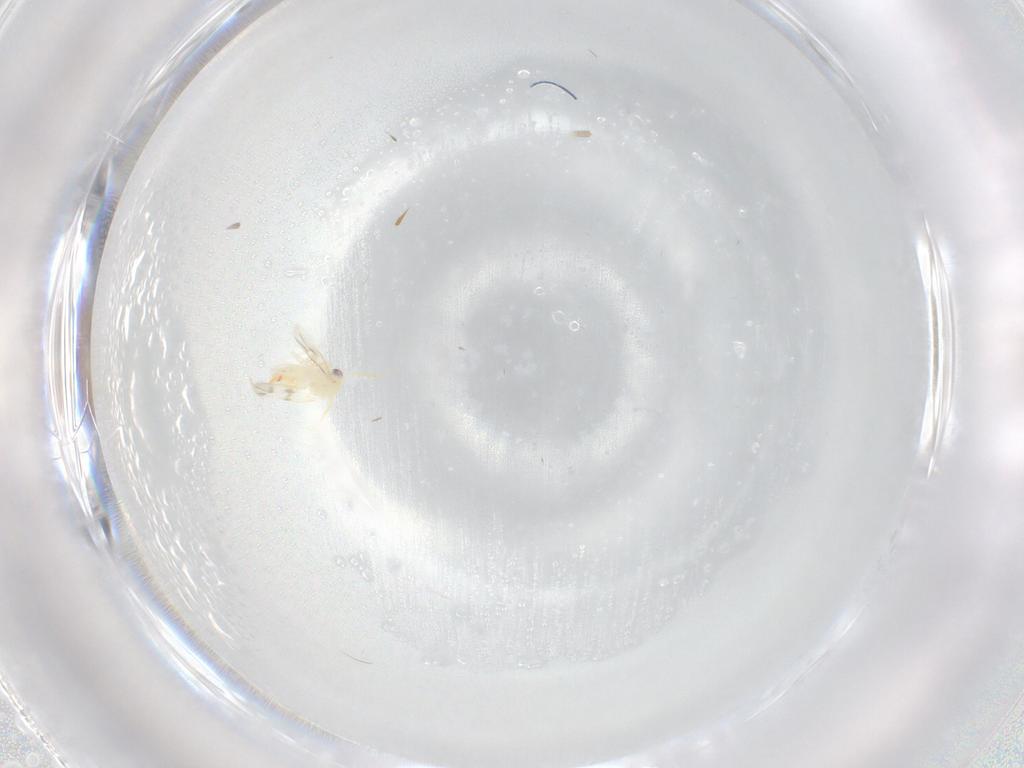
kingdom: Animalia
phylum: Arthropoda
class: Insecta
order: Hemiptera
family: Aleyrodidae
